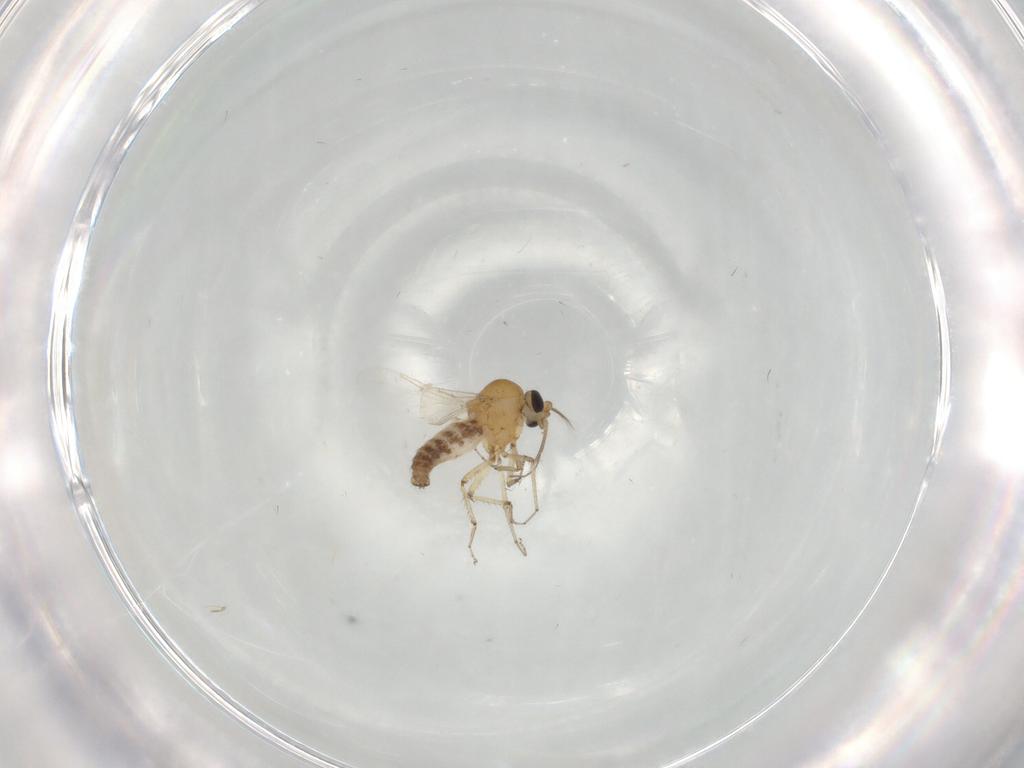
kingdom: Animalia
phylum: Arthropoda
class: Insecta
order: Diptera
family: Ceratopogonidae
